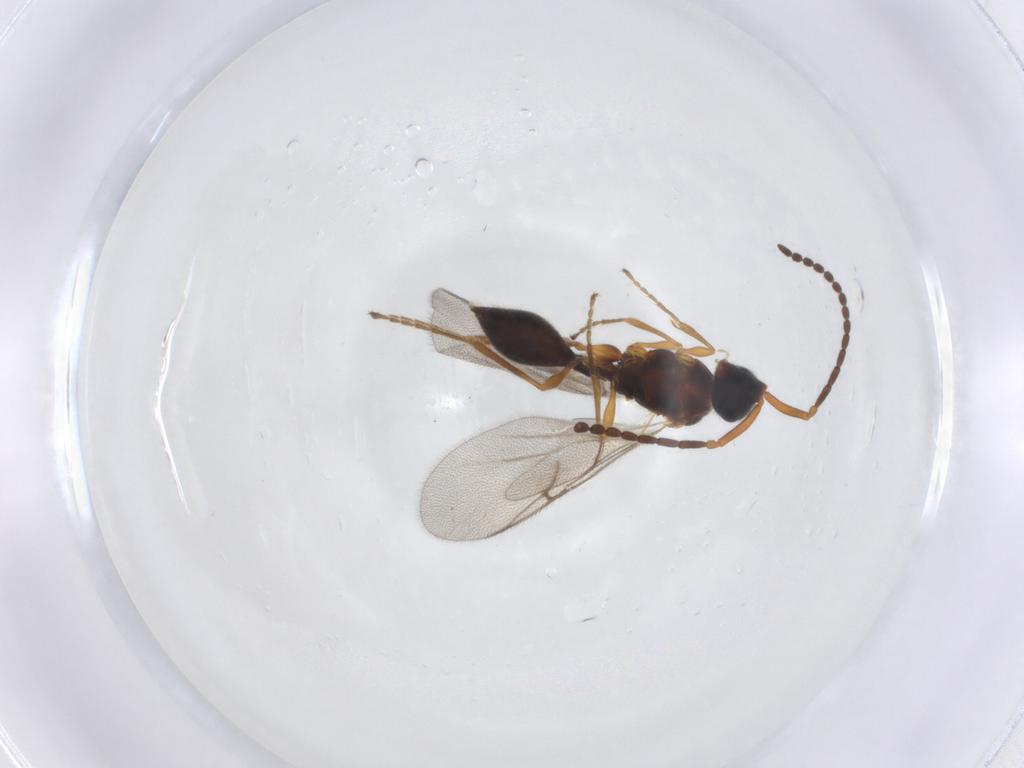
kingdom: Animalia
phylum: Arthropoda
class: Insecta
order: Hymenoptera
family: Diapriidae
